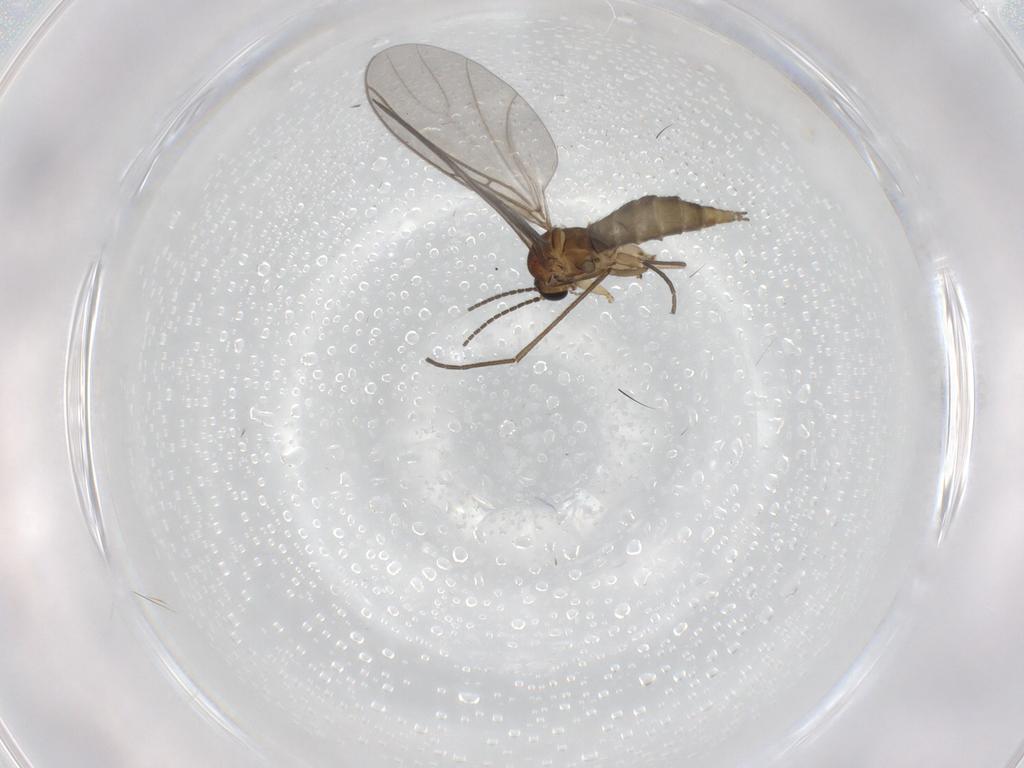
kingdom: Animalia
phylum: Arthropoda
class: Insecta
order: Diptera
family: Sciaridae
